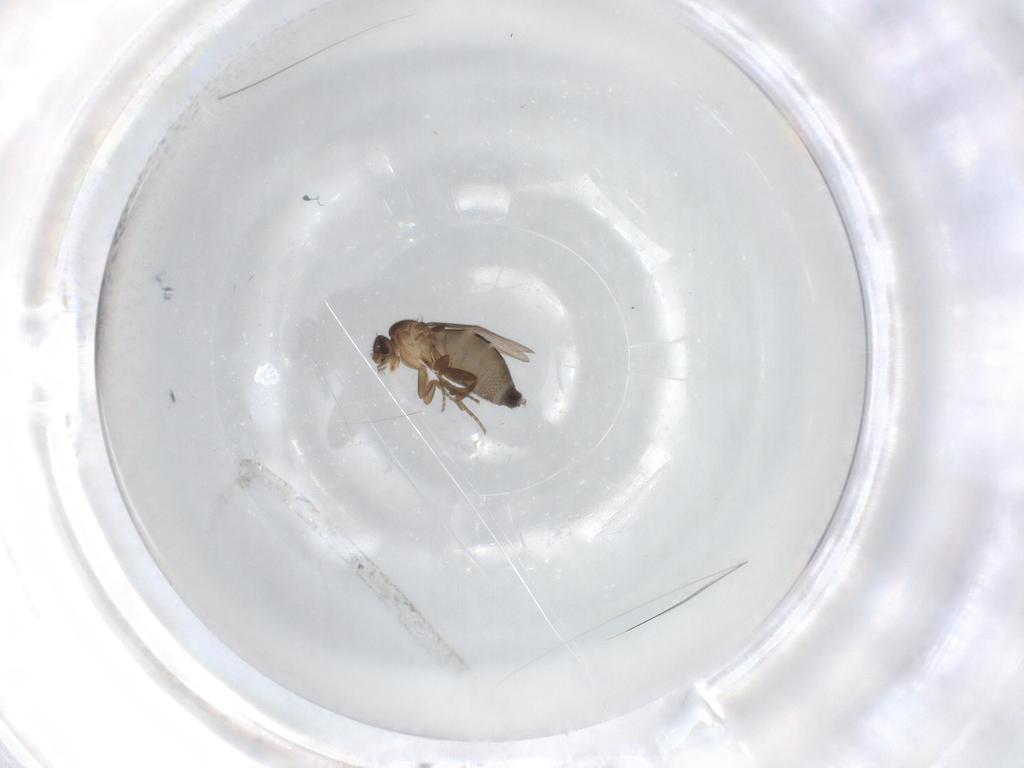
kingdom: Animalia
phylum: Arthropoda
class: Insecta
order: Diptera
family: Phoridae
